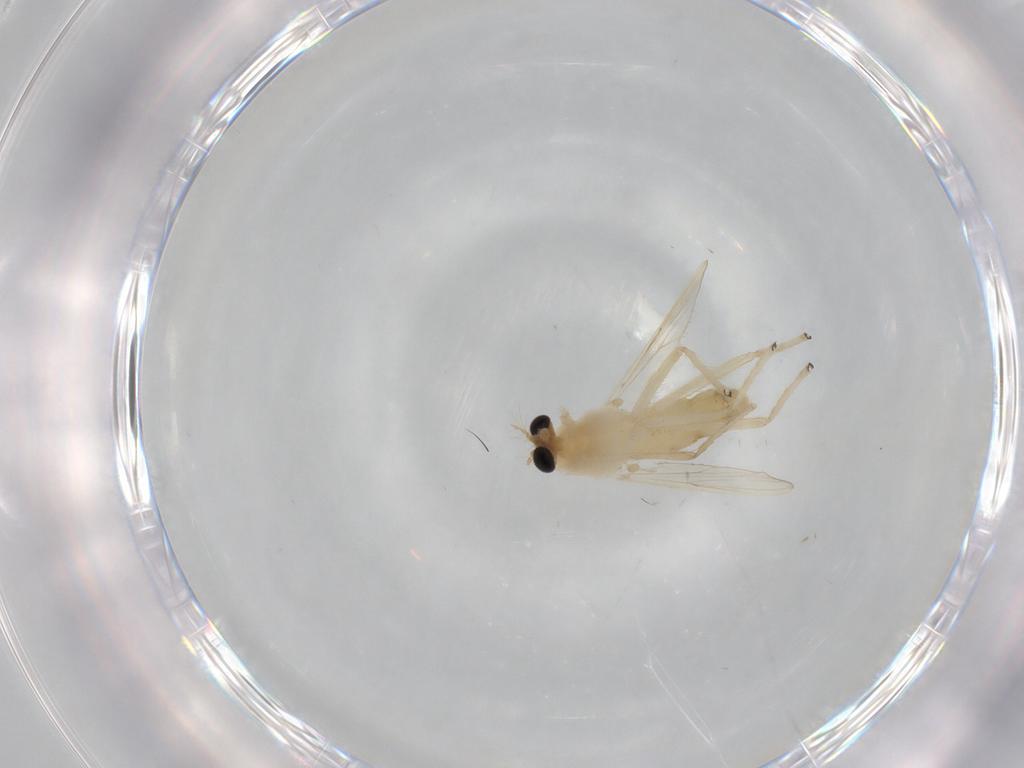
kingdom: Animalia
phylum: Arthropoda
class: Insecta
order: Diptera
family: Chironomidae
